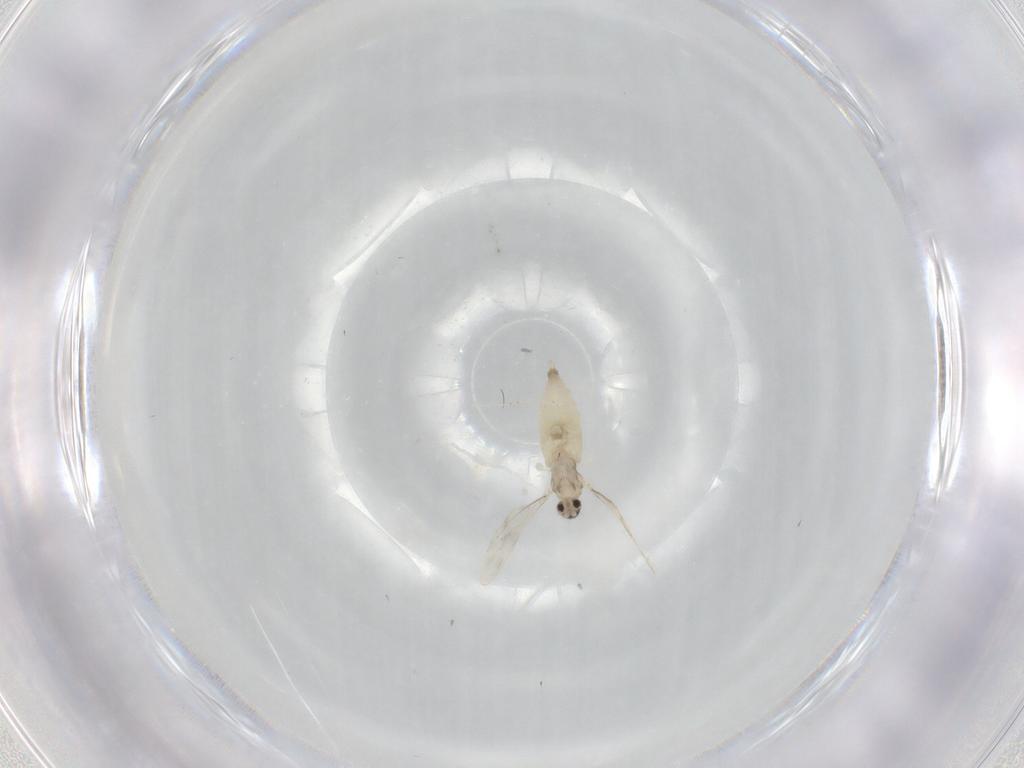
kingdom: Animalia
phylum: Arthropoda
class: Insecta
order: Diptera
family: Cecidomyiidae
